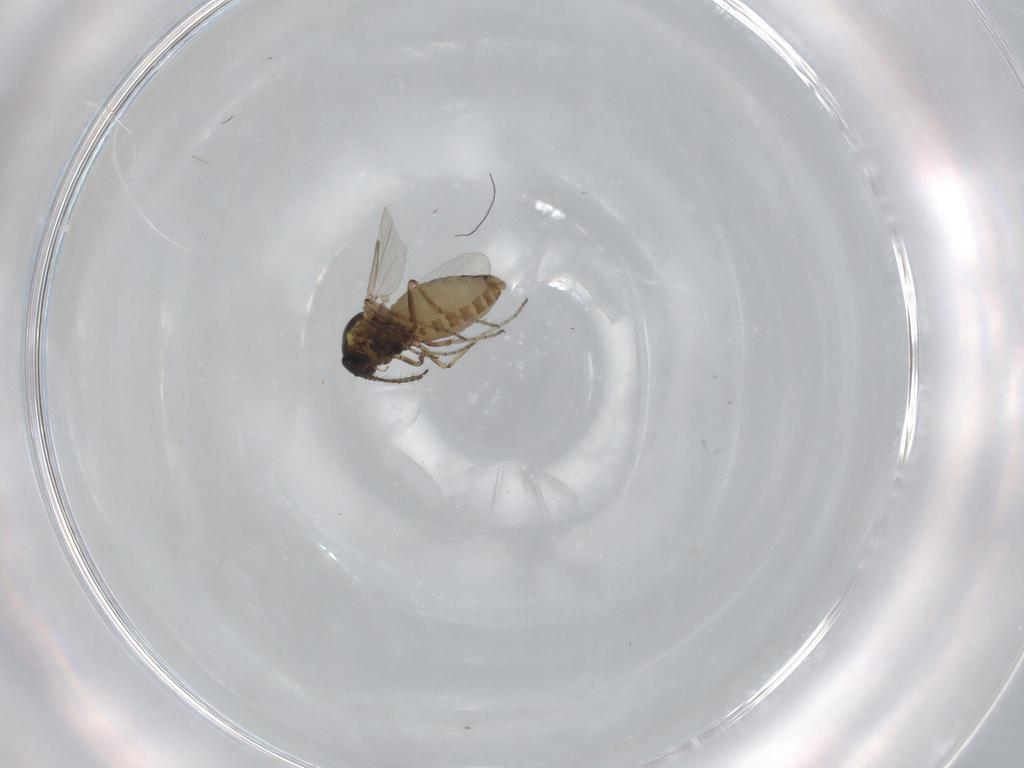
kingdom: Animalia
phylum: Arthropoda
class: Insecta
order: Diptera
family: Ceratopogonidae
